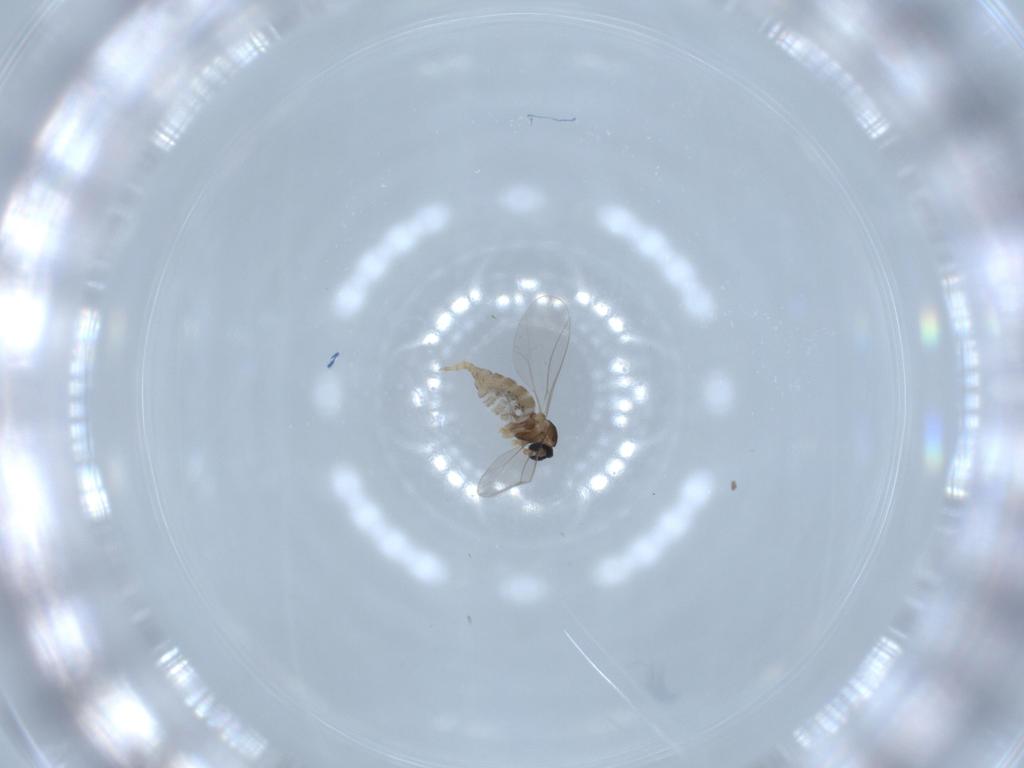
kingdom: Animalia
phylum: Arthropoda
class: Insecta
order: Diptera
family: Cecidomyiidae
